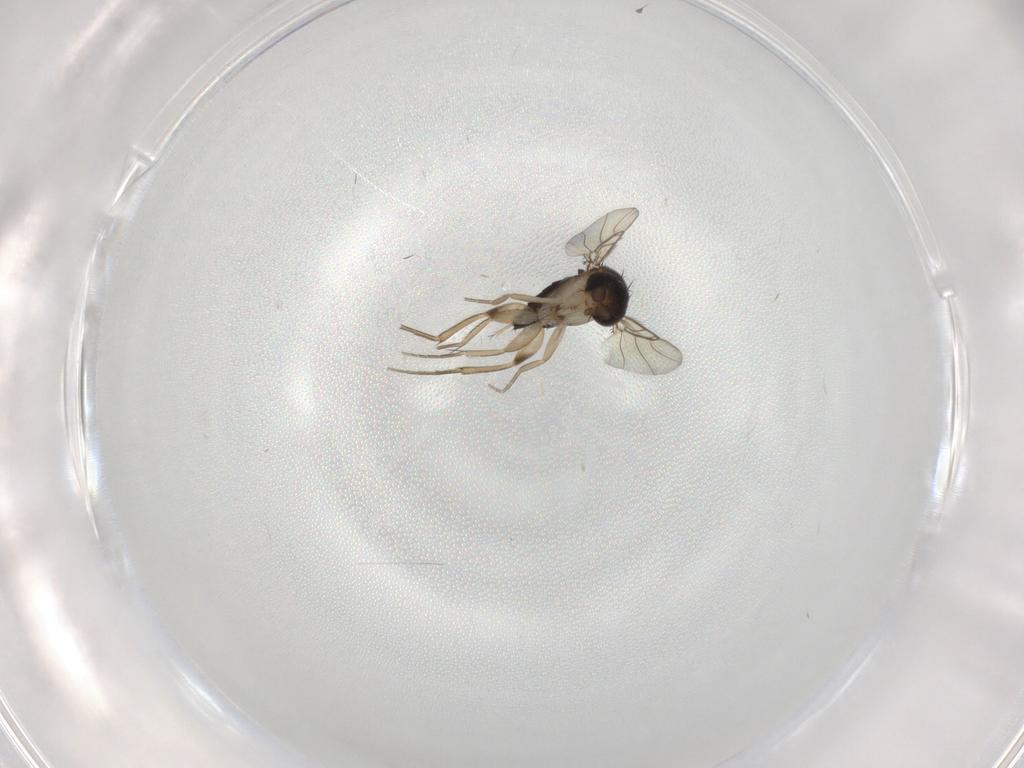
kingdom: Animalia
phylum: Arthropoda
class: Insecta
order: Diptera
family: Phoridae
